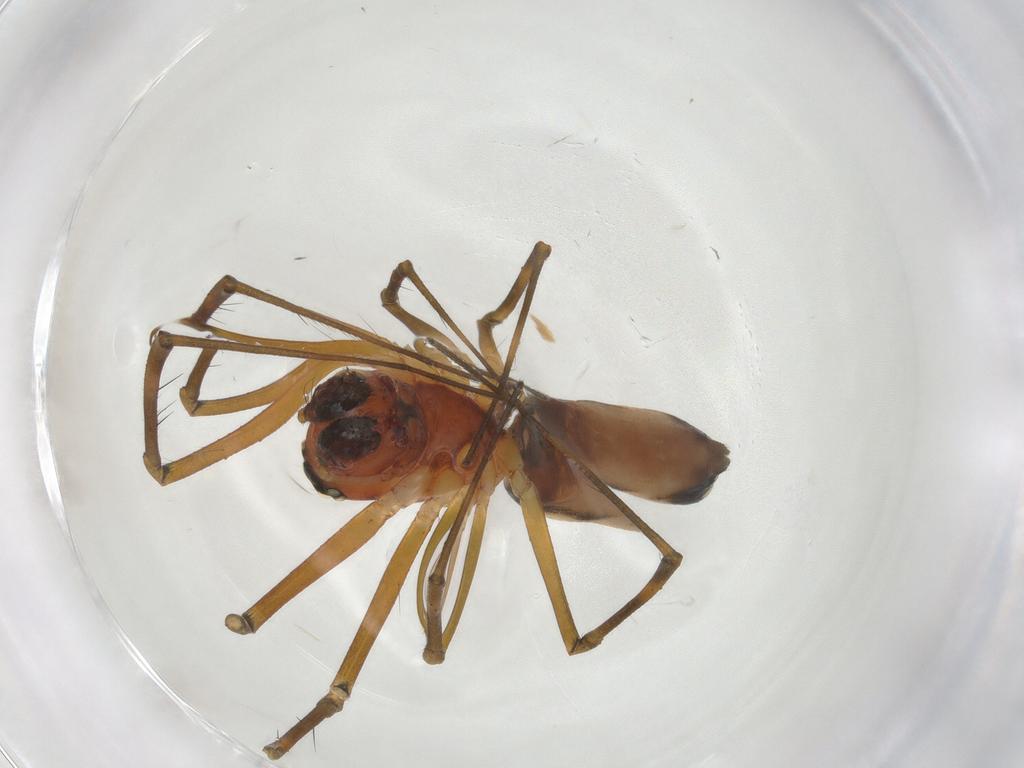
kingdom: Animalia
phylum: Arthropoda
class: Arachnida
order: Araneae
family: Linyphiidae
